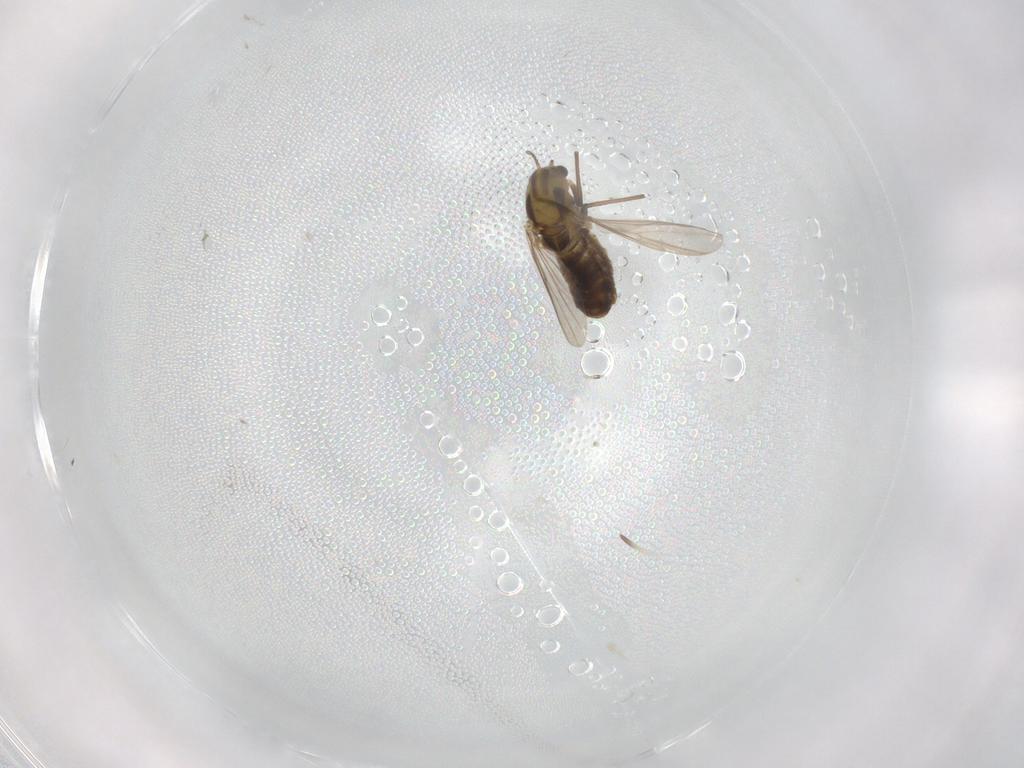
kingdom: Animalia
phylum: Arthropoda
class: Insecta
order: Diptera
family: Chironomidae
